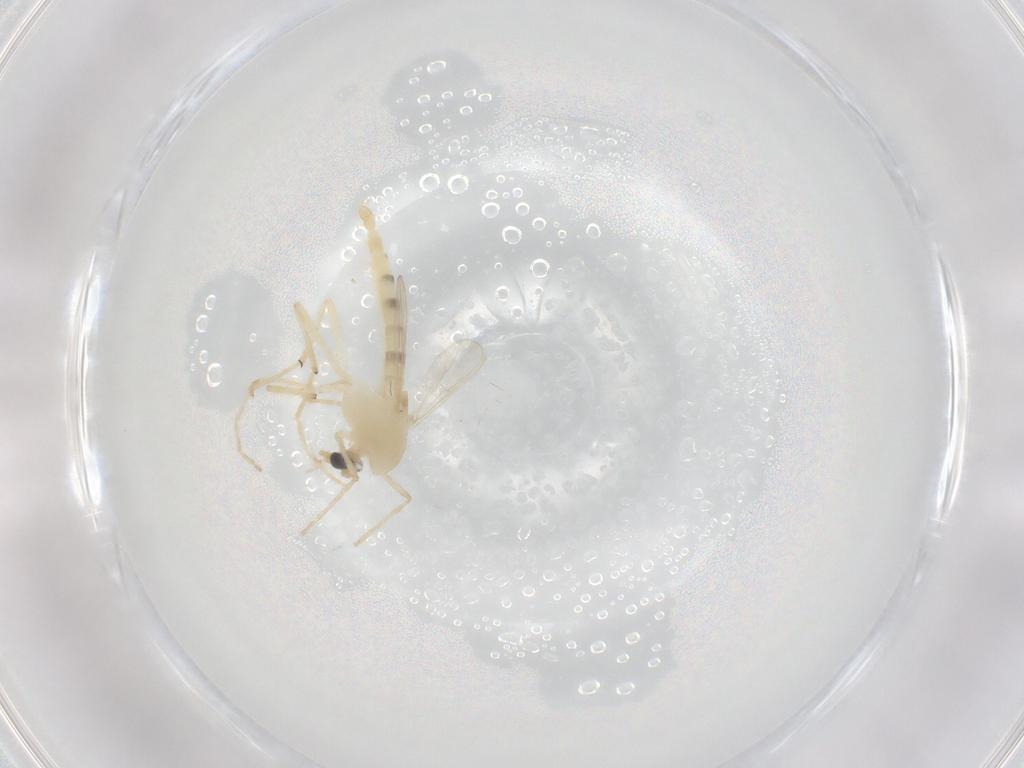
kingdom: Animalia
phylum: Arthropoda
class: Insecta
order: Diptera
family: Chironomidae
